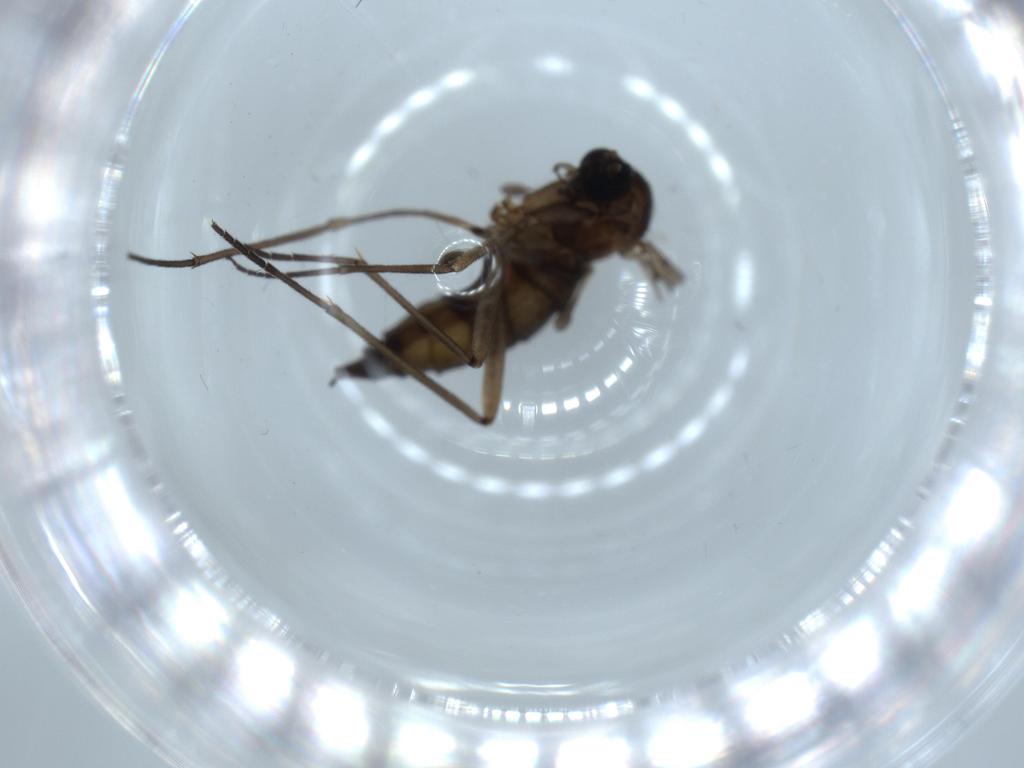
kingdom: Animalia
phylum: Arthropoda
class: Insecta
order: Diptera
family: Sciaridae
